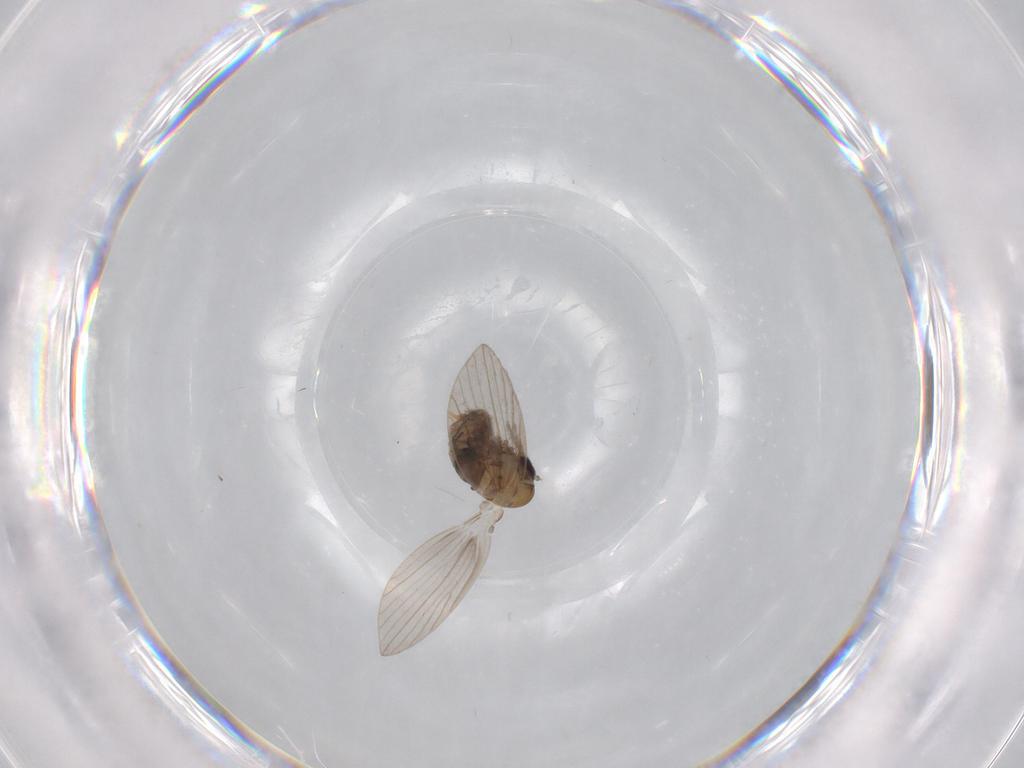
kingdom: Animalia
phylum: Arthropoda
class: Insecta
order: Diptera
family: Psychodidae
